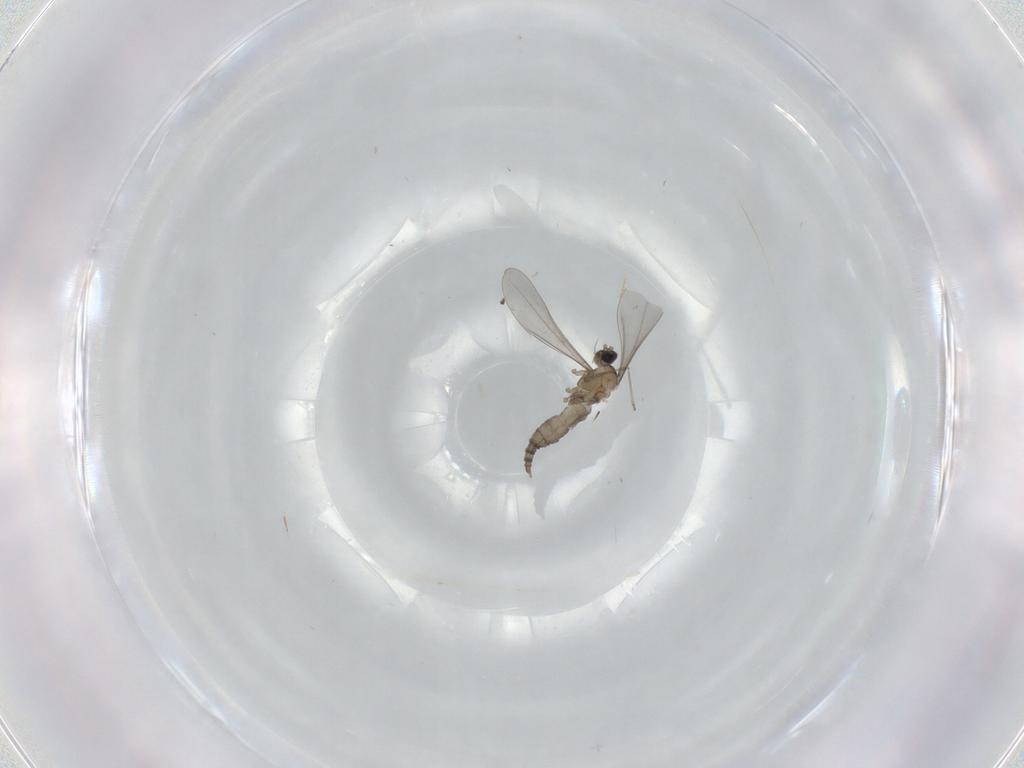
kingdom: Animalia
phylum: Arthropoda
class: Insecta
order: Diptera
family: Cecidomyiidae
